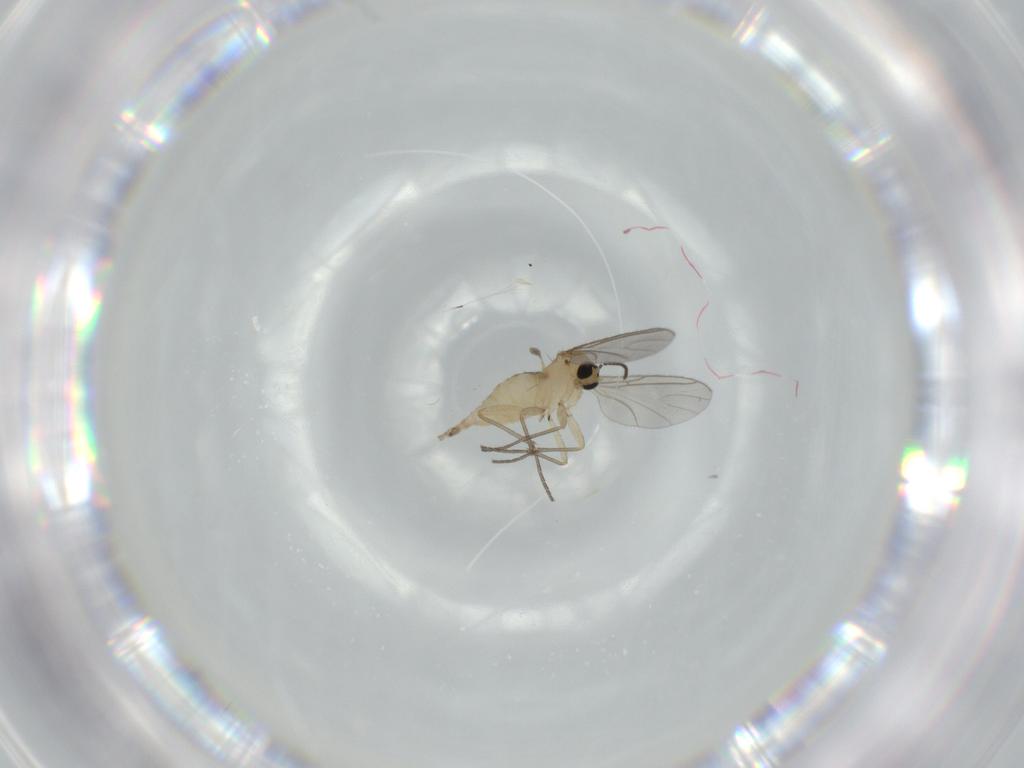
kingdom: Animalia
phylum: Arthropoda
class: Insecta
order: Diptera
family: Sciaridae
